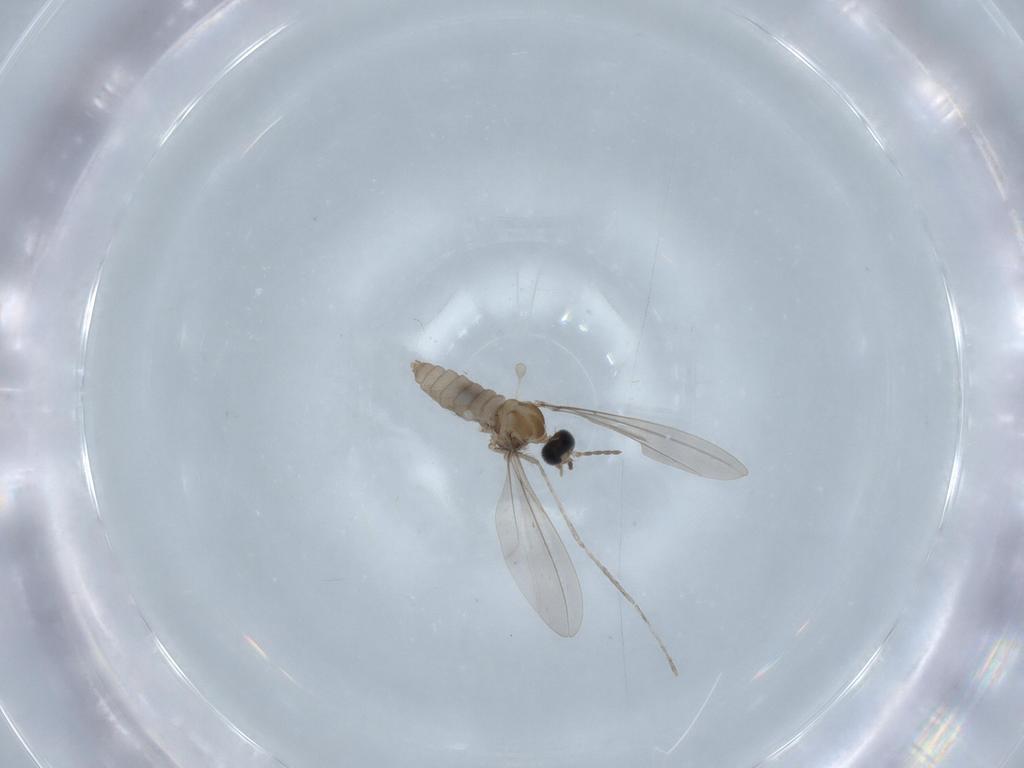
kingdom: Animalia
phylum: Arthropoda
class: Insecta
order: Diptera
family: Cecidomyiidae
